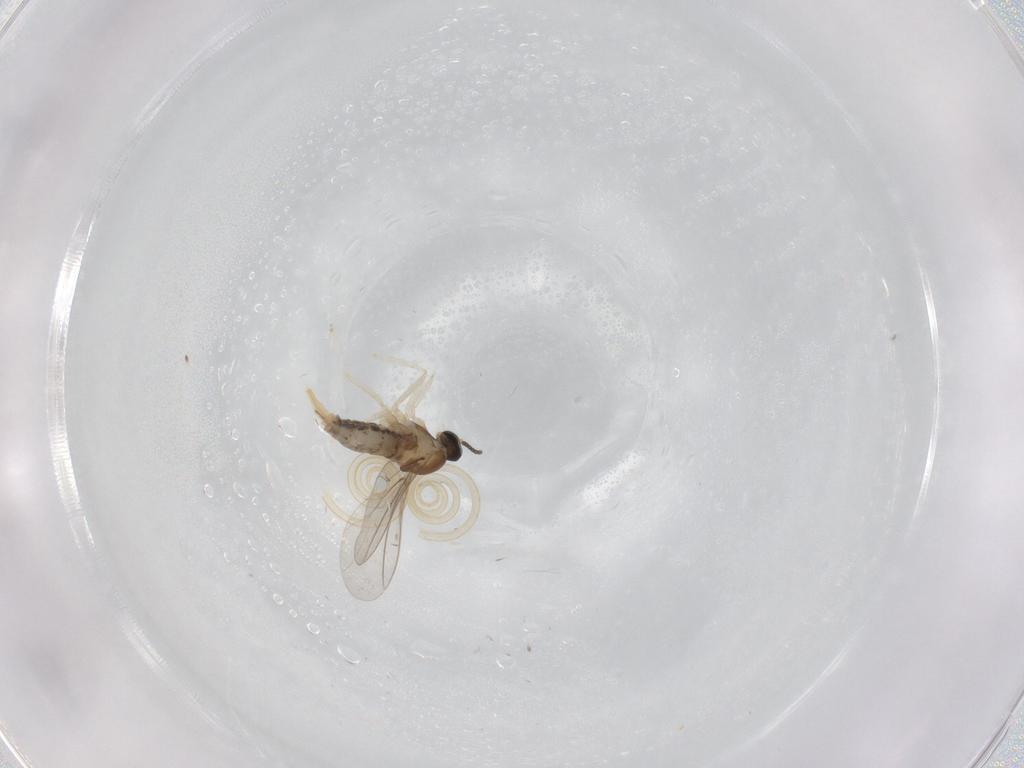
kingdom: Animalia
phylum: Arthropoda
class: Insecta
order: Diptera
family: Cecidomyiidae
